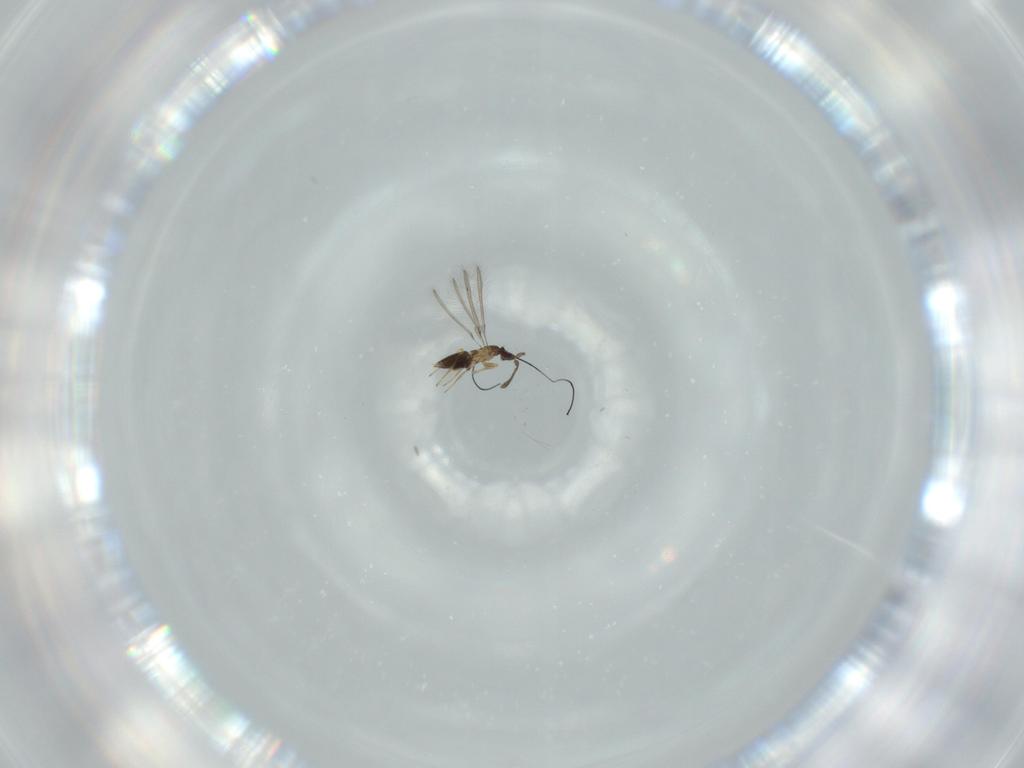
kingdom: Animalia
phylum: Arthropoda
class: Insecta
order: Hymenoptera
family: Mymaridae
